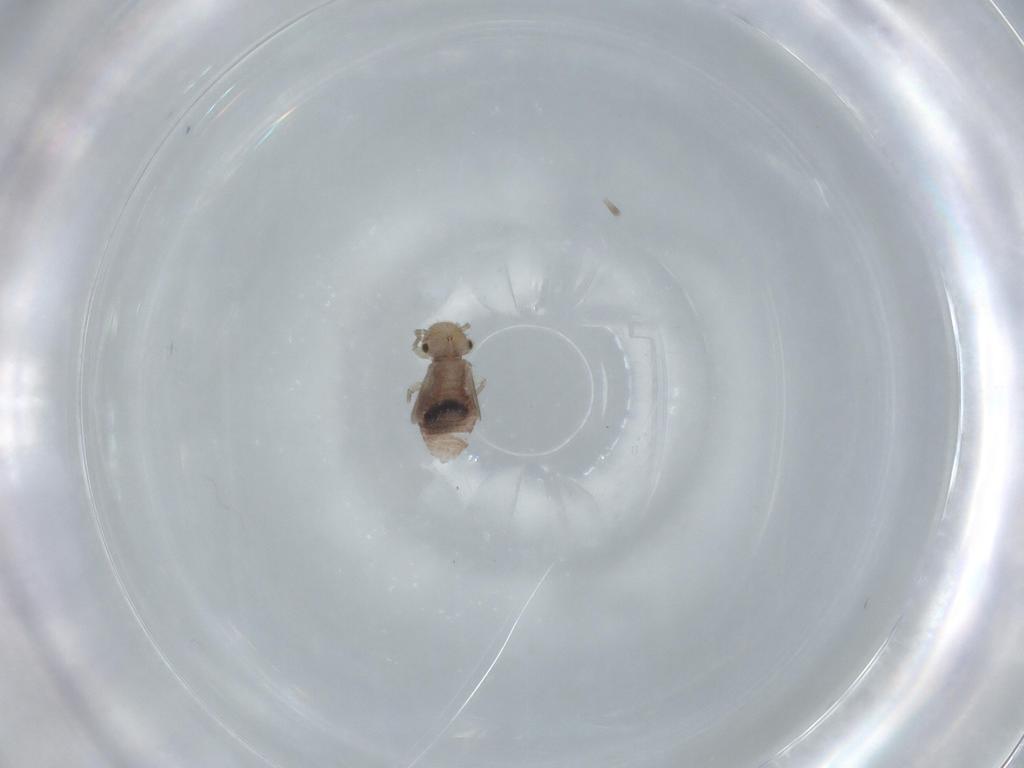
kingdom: Animalia
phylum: Arthropoda
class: Insecta
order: Psocodea
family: Ectopsocidae
